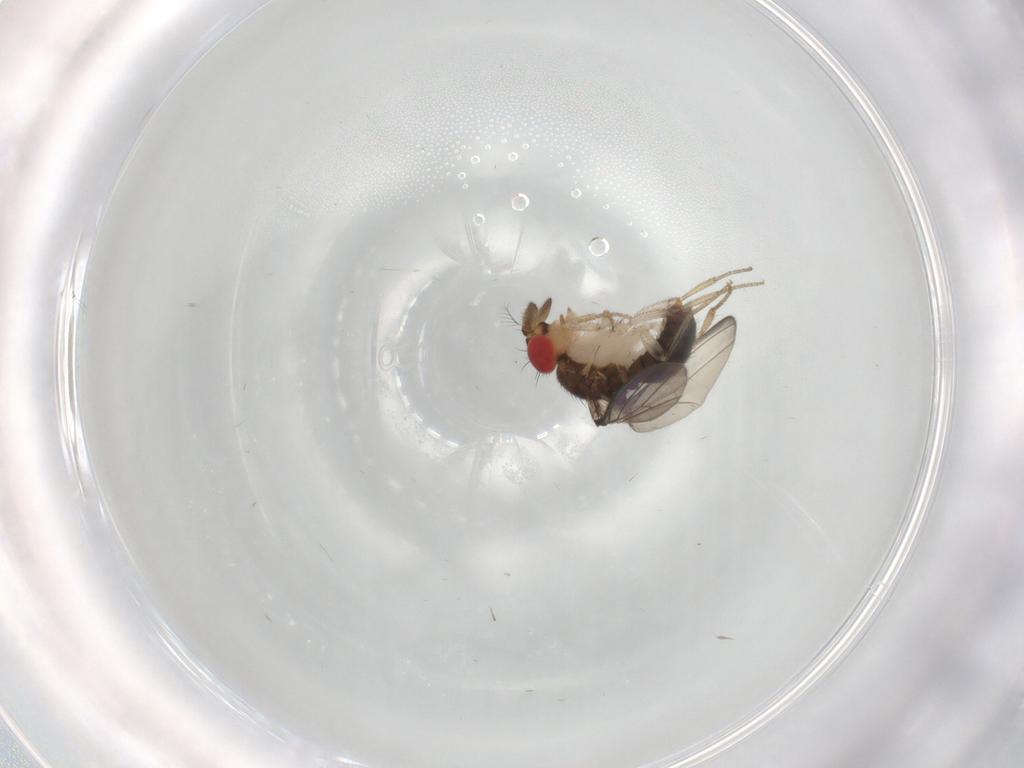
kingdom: Animalia
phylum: Arthropoda
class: Insecta
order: Diptera
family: Drosophilidae
